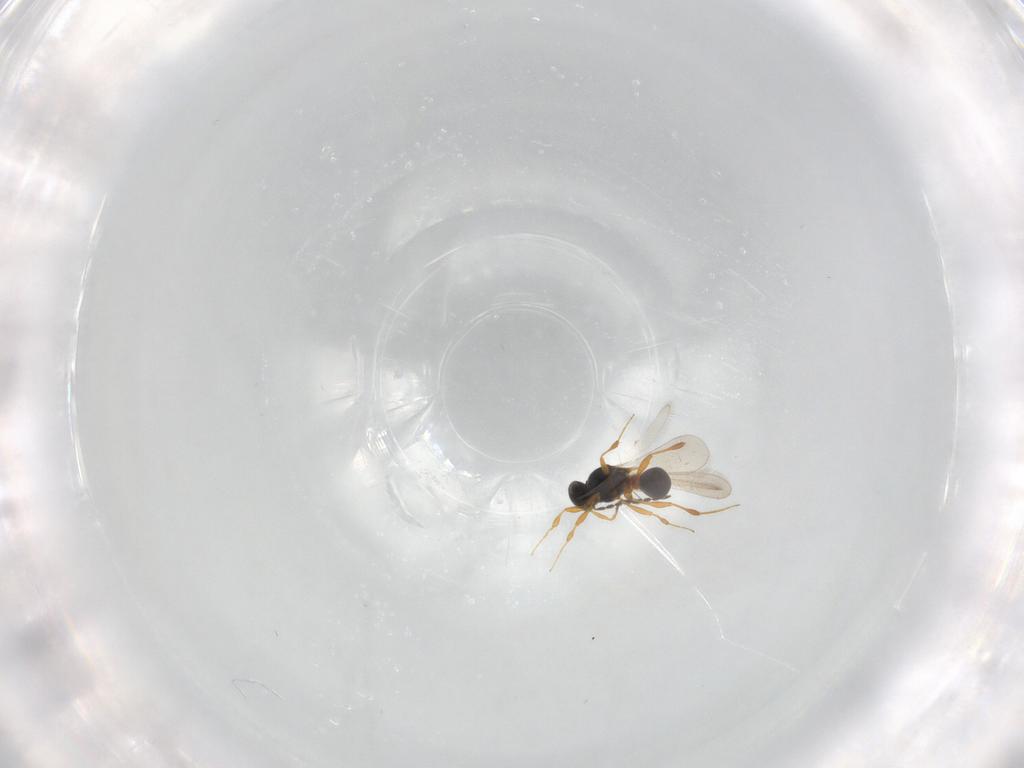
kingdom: Animalia
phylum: Arthropoda
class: Insecta
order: Hymenoptera
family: Platygastridae
